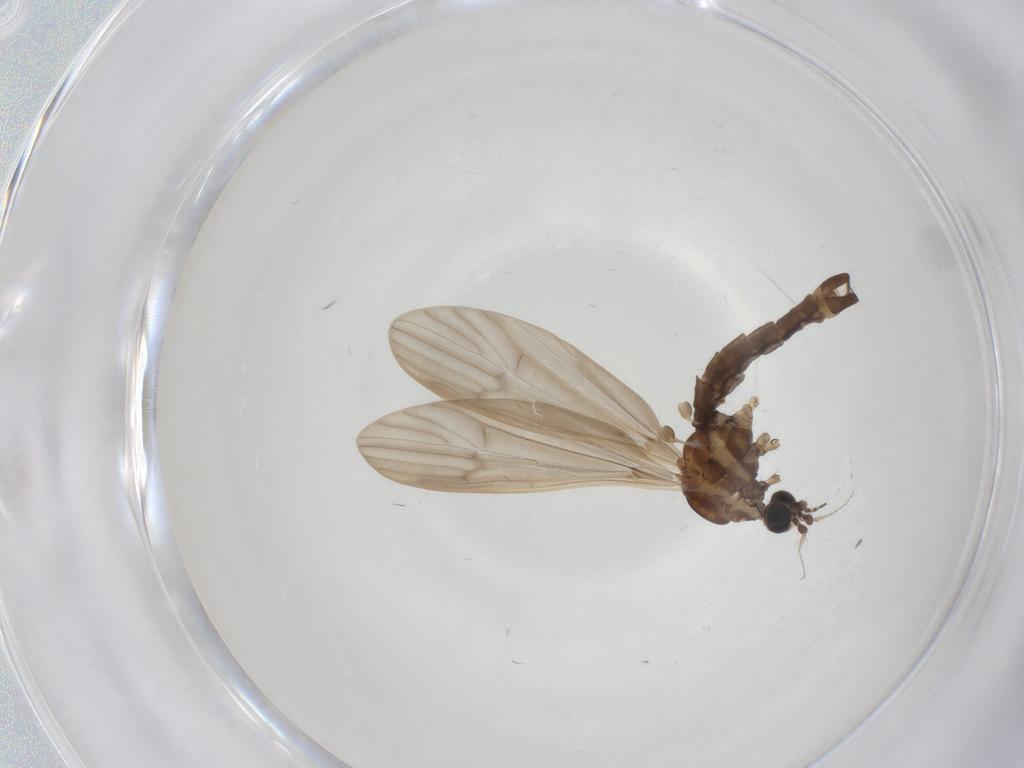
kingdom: Animalia
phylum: Arthropoda
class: Insecta
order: Diptera
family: Limoniidae
